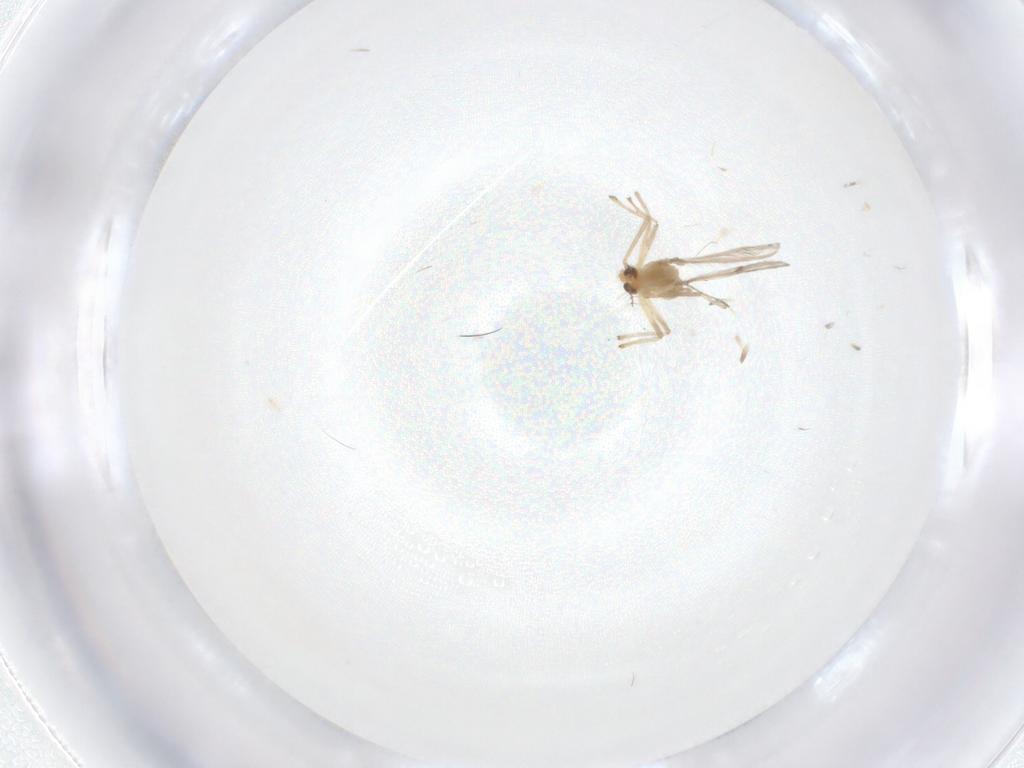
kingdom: Animalia
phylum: Arthropoda
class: Insecta
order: Diptera
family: Chironomidae
